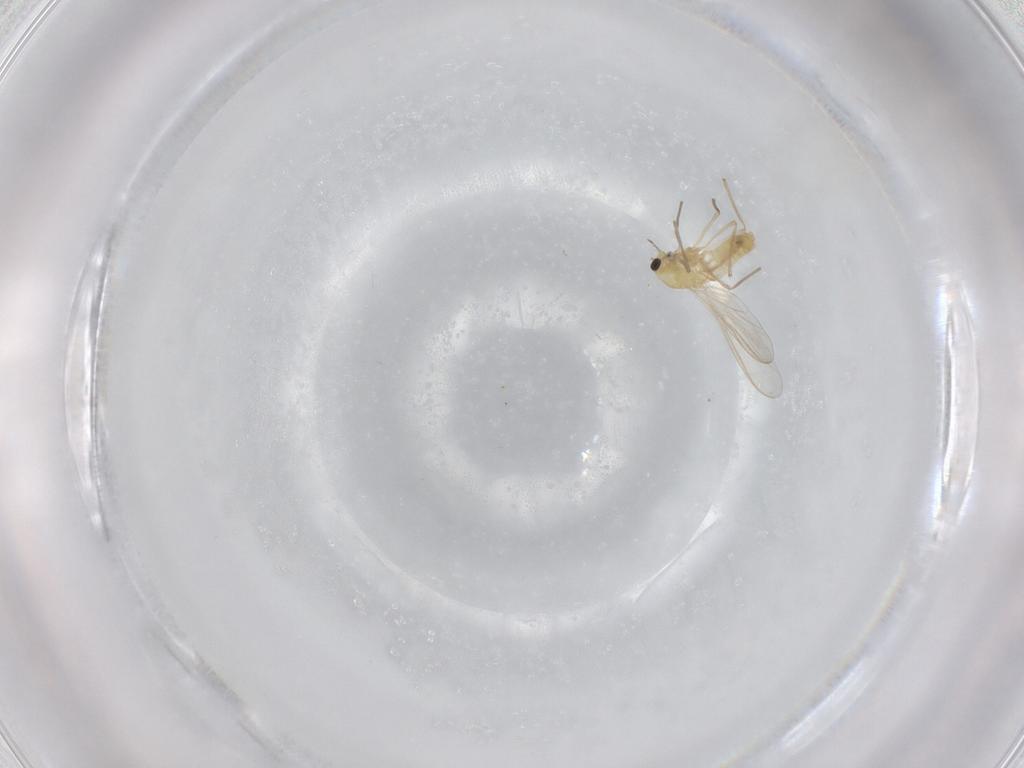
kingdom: Animalia
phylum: Arthropoda
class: Insecta
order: Diptera
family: Chironomidae
